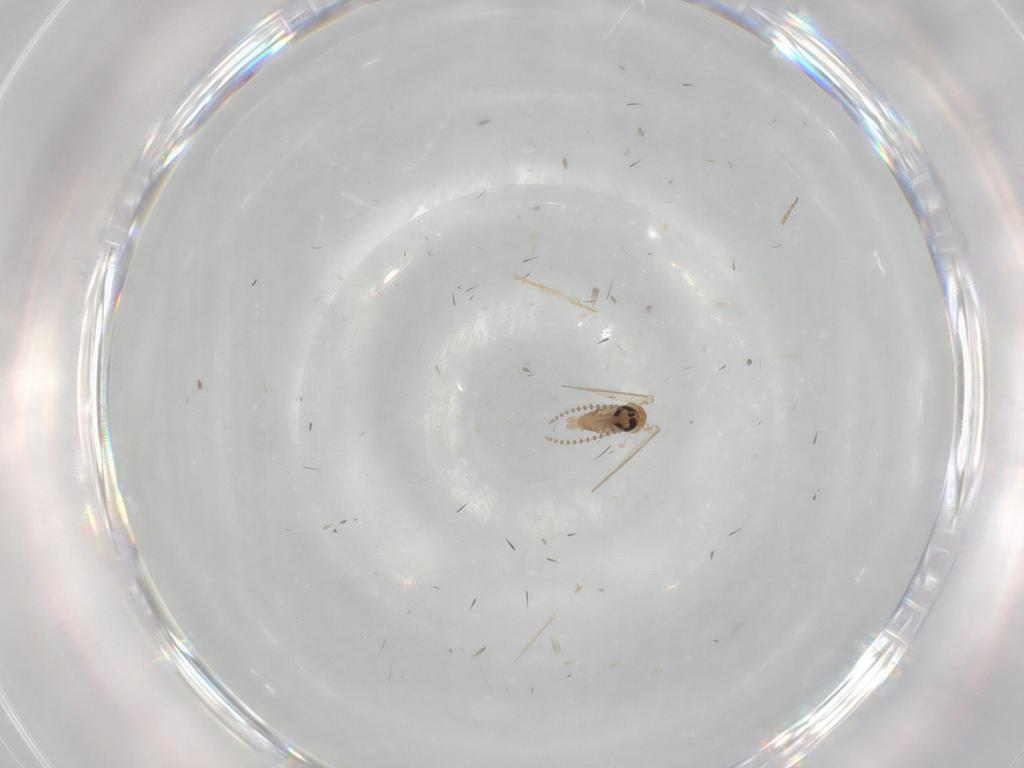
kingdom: Animalia
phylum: Arthropoda
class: Insecta
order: Diptera
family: Psychodidae
